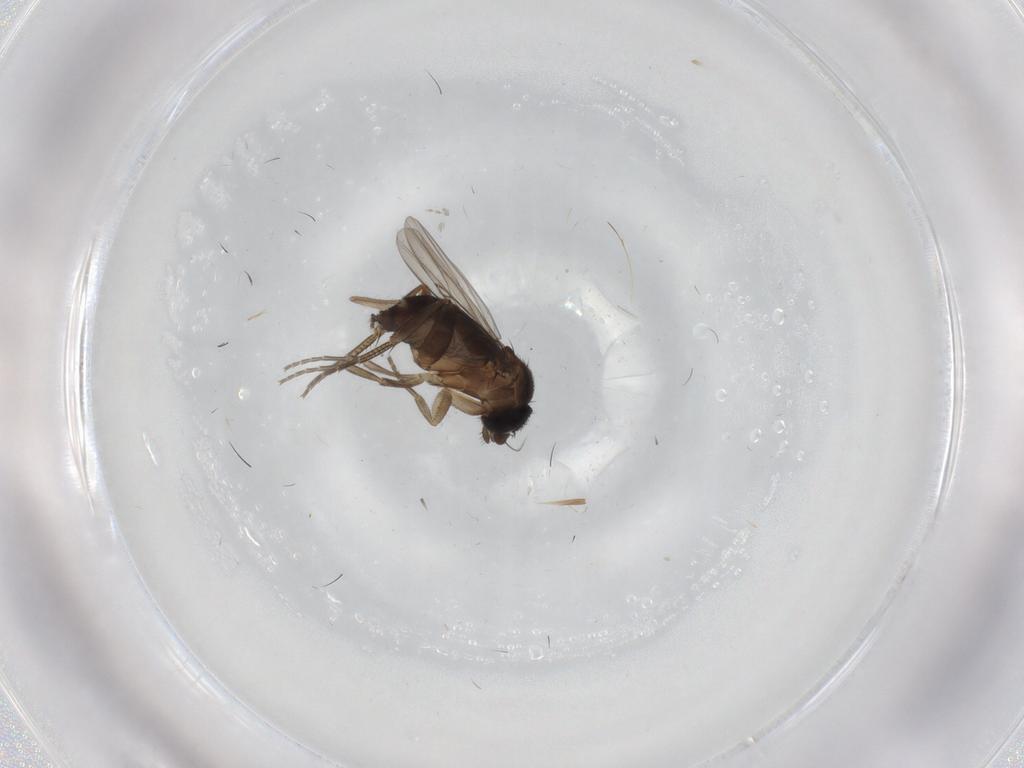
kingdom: Animalia
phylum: Arthropoda
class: Insecta
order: Diptera
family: Phoridae
